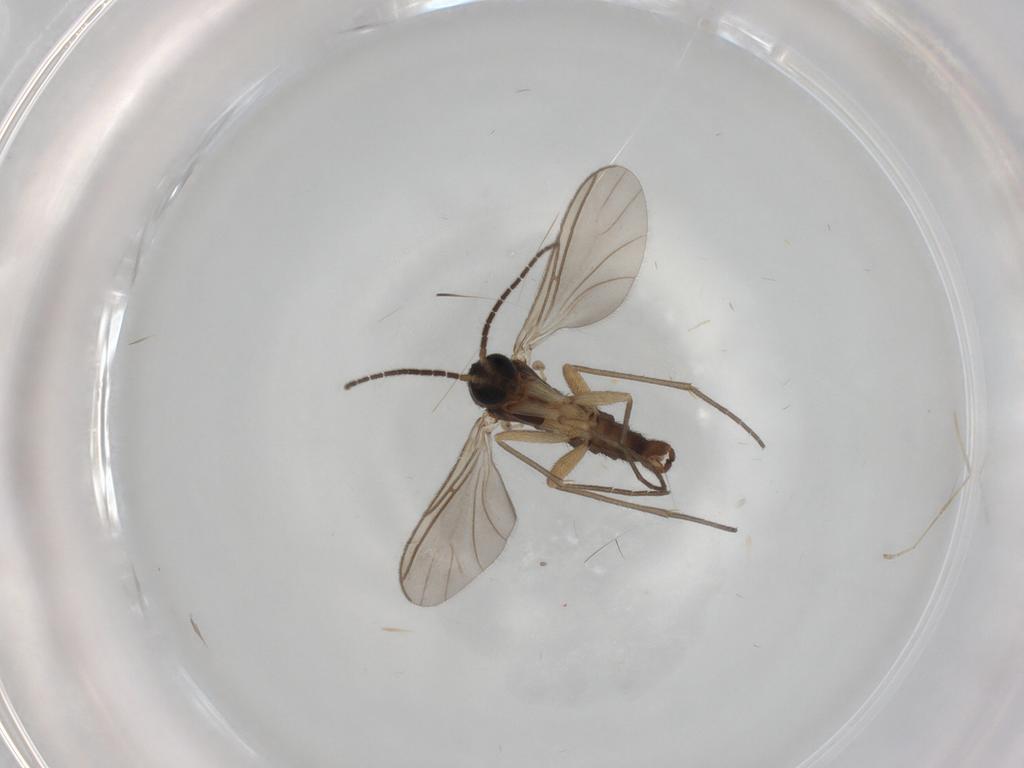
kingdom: Animalia
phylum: Arthropoda
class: Insecta
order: Diptera
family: Sciaridae
